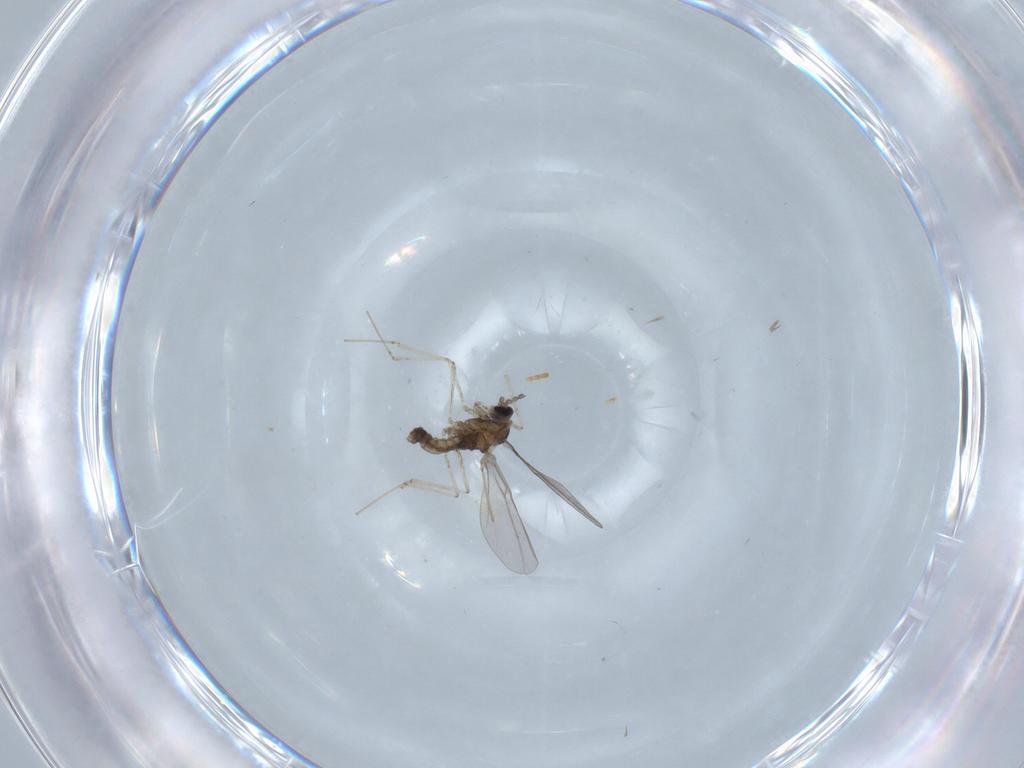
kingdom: Animalia
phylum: Arthropoda
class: Insecta
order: Diptera
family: Psychodidae
